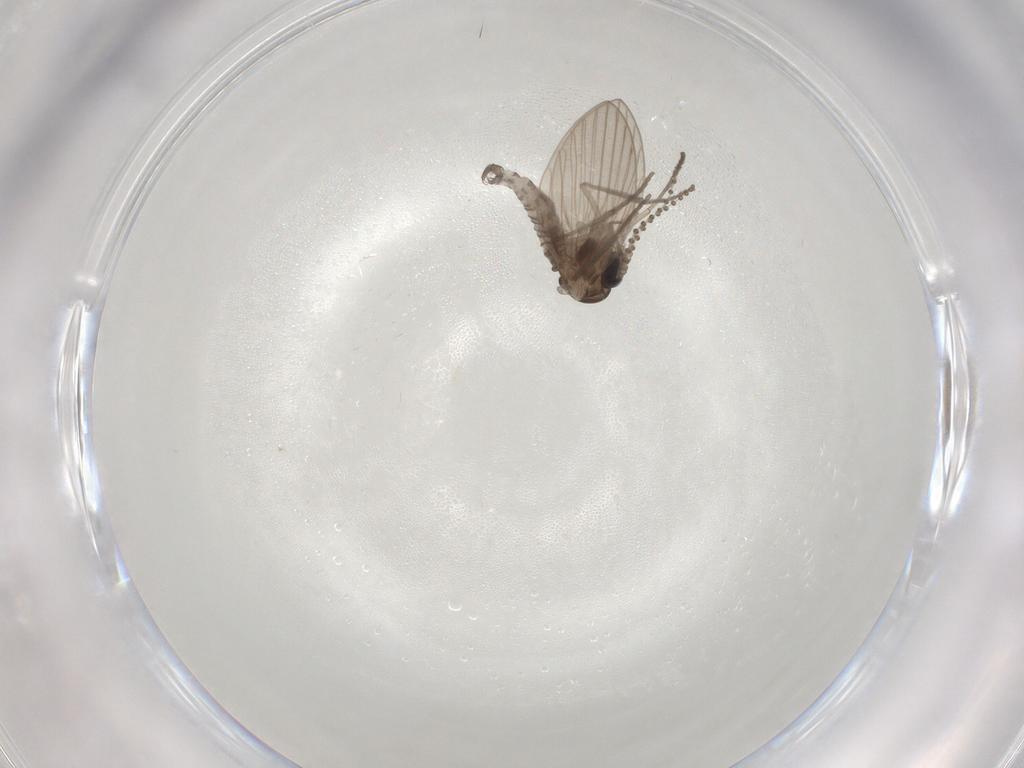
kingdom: Animalia
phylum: Arthropoda
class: Insecta
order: Diptera
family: Psychodidae
